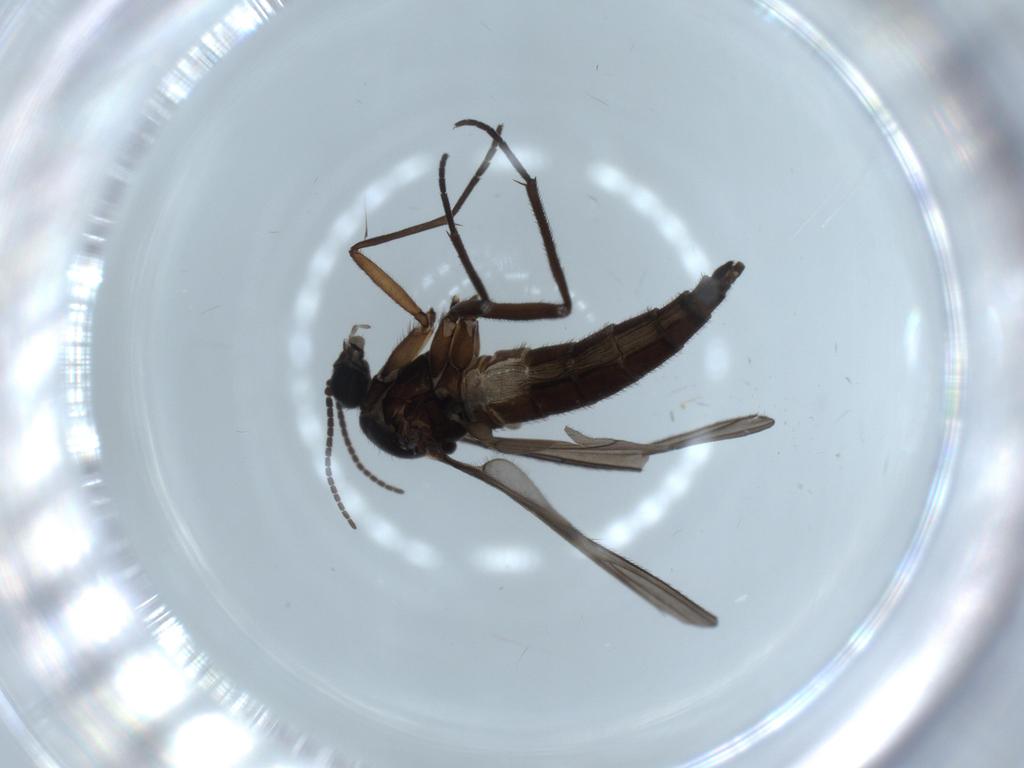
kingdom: Animalia
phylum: Arthropoda
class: Insecta
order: Diptera
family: Sciaridae
